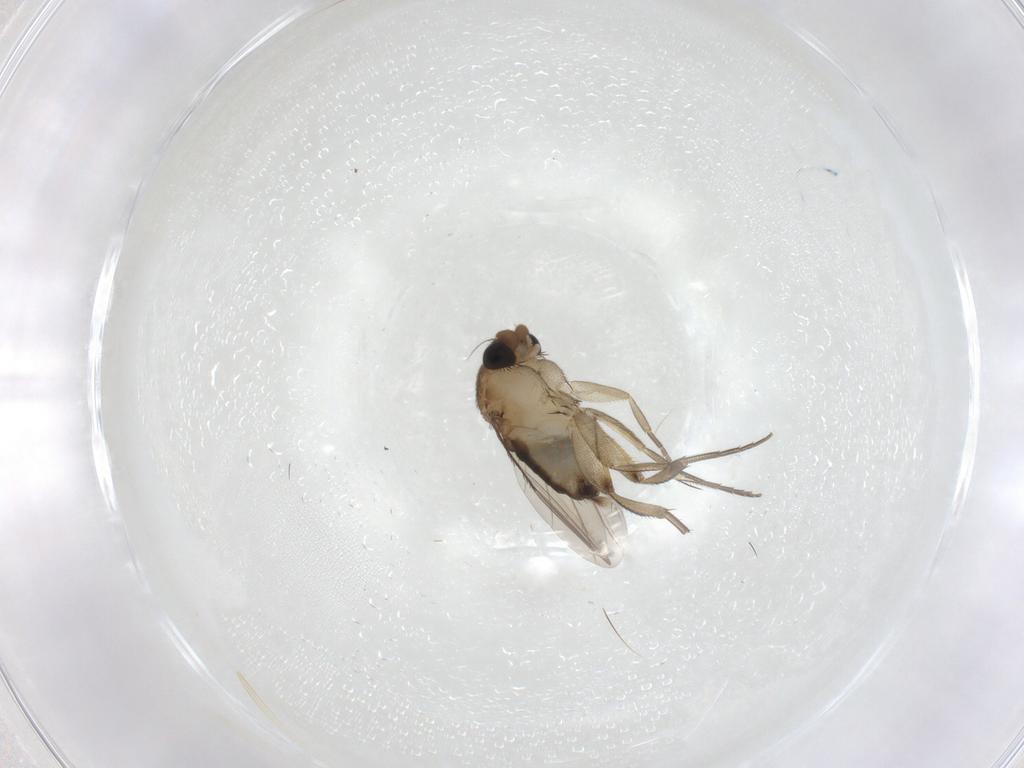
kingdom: Animalia
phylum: Arthropoda
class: Insecta
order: Diptera
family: Phoridae
